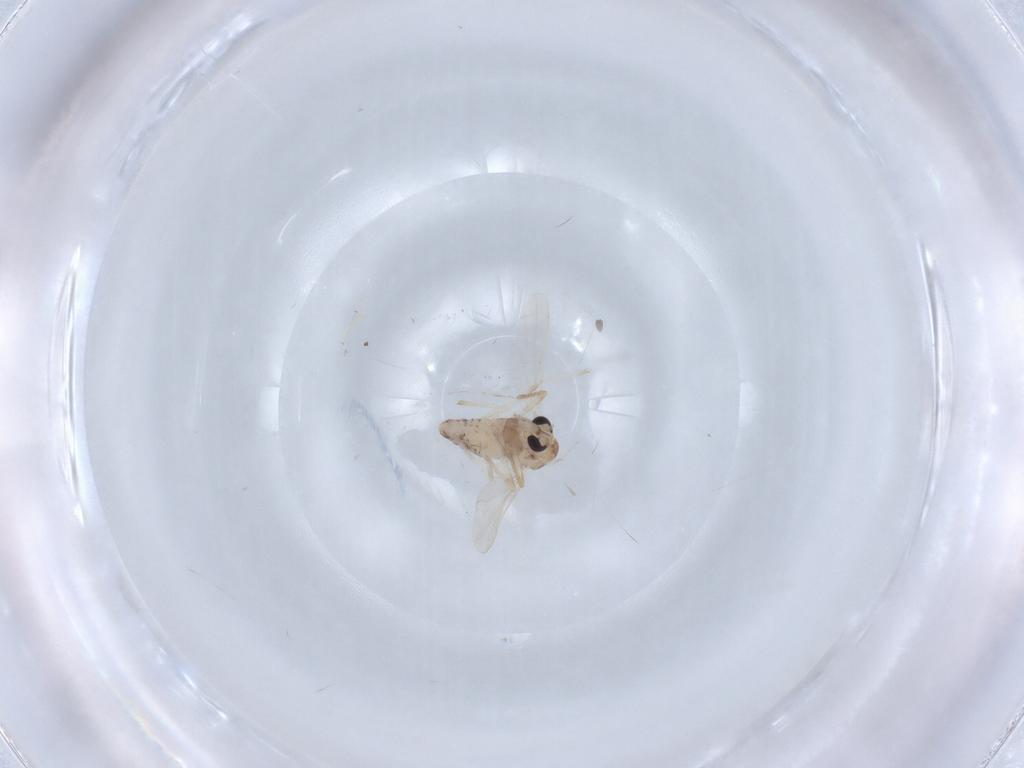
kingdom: Animalia
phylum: Arthropoda
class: Insecta
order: Diptera
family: Chironomidae
